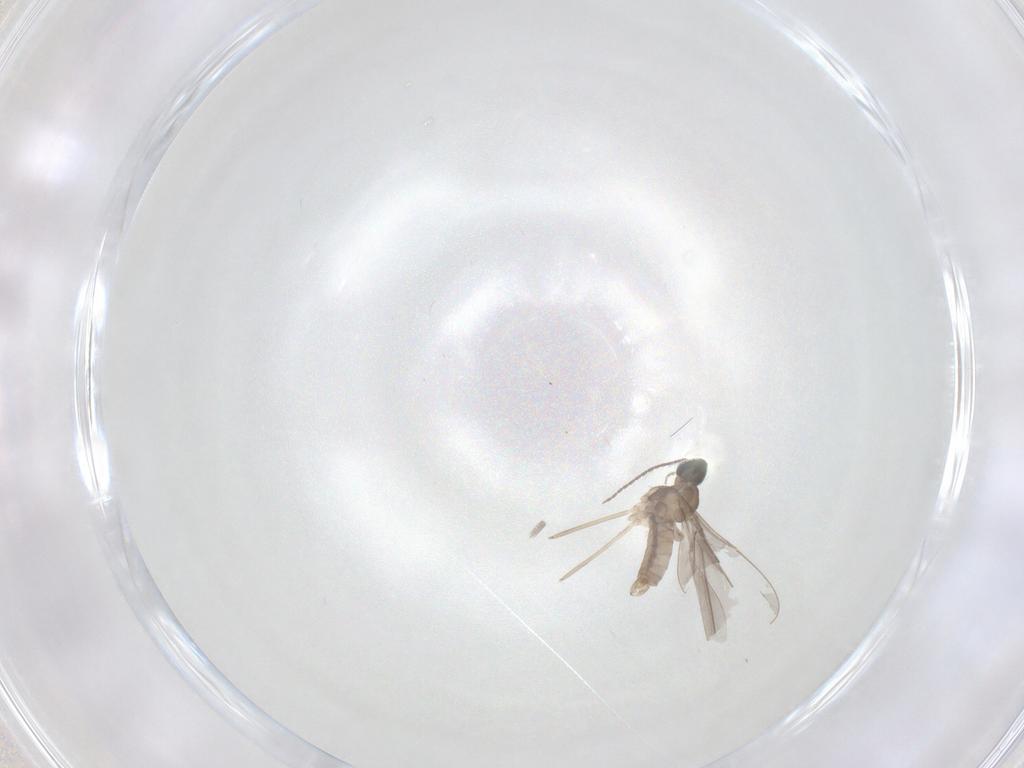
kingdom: Animalia
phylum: Arthropoda
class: Insecta
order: Diptera
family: Cecidomyiidae
